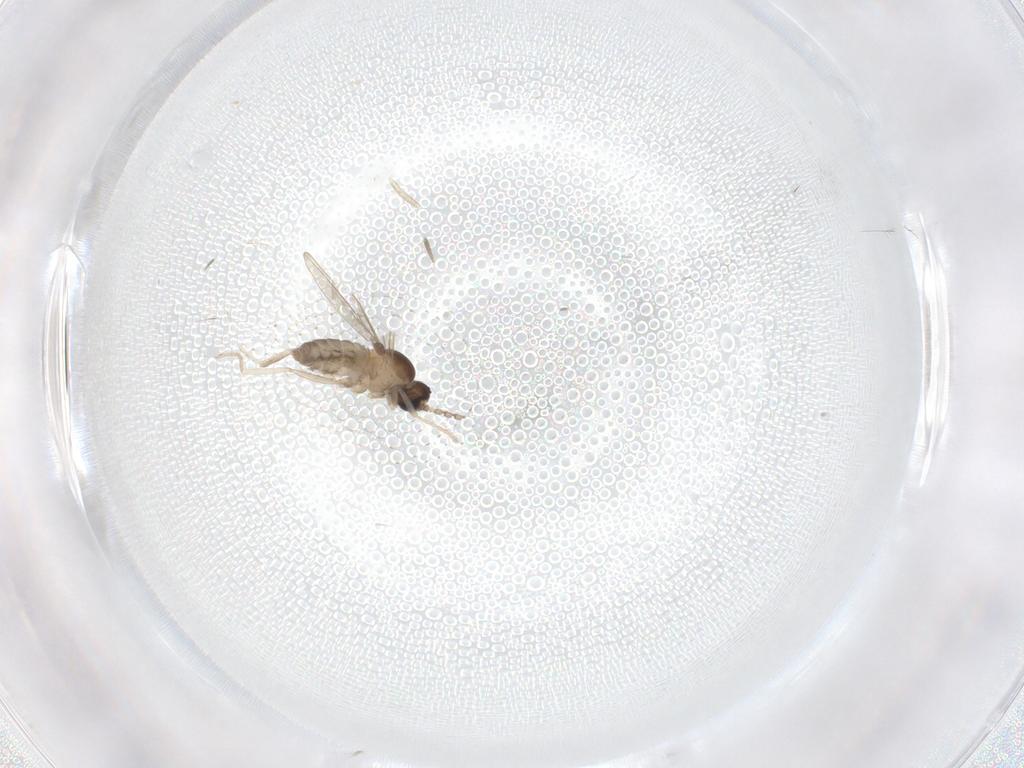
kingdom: Animalia
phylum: Arthropoda
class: Insecta
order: Diptera
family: Cecidomyiidae
